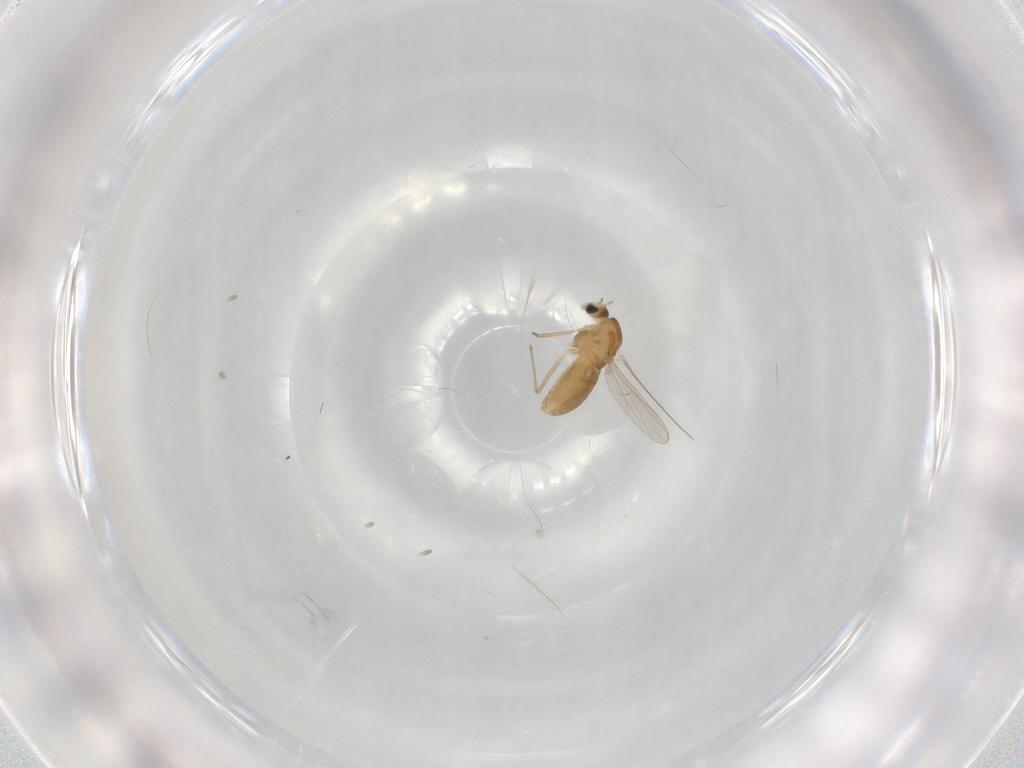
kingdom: Animalia
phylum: Arthropoda
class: Insecta
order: Diptera
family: Chironomidae
